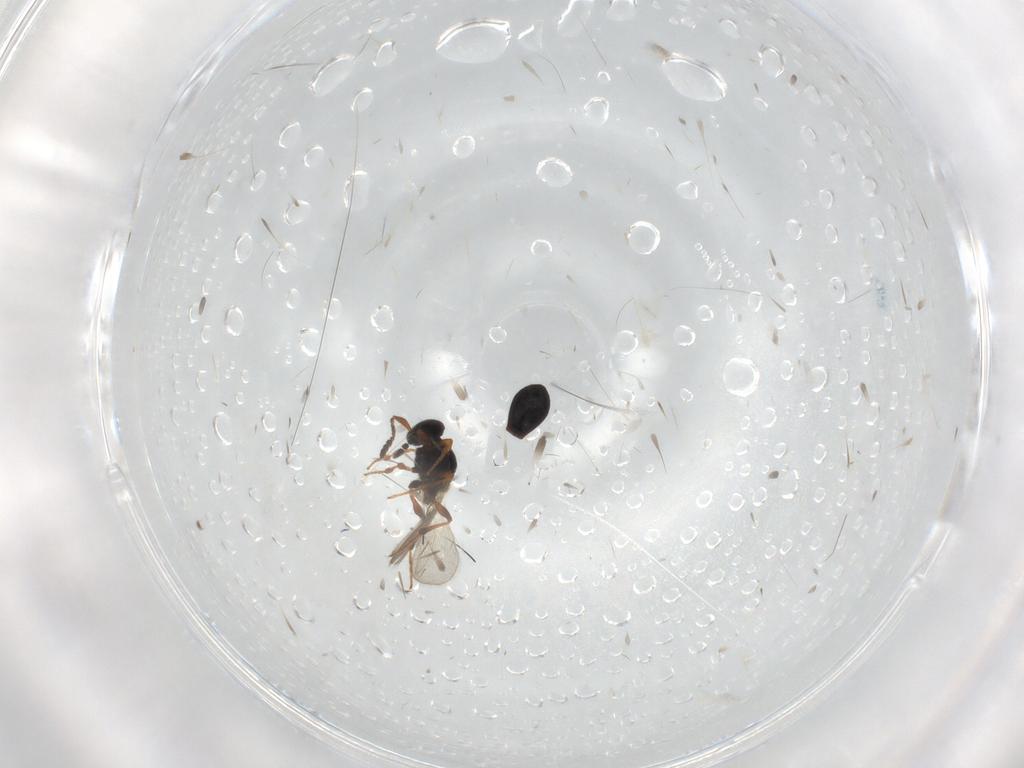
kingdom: Animalia
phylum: Arthropoda
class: Insecta
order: Hymenoptera
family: Platygastridae
